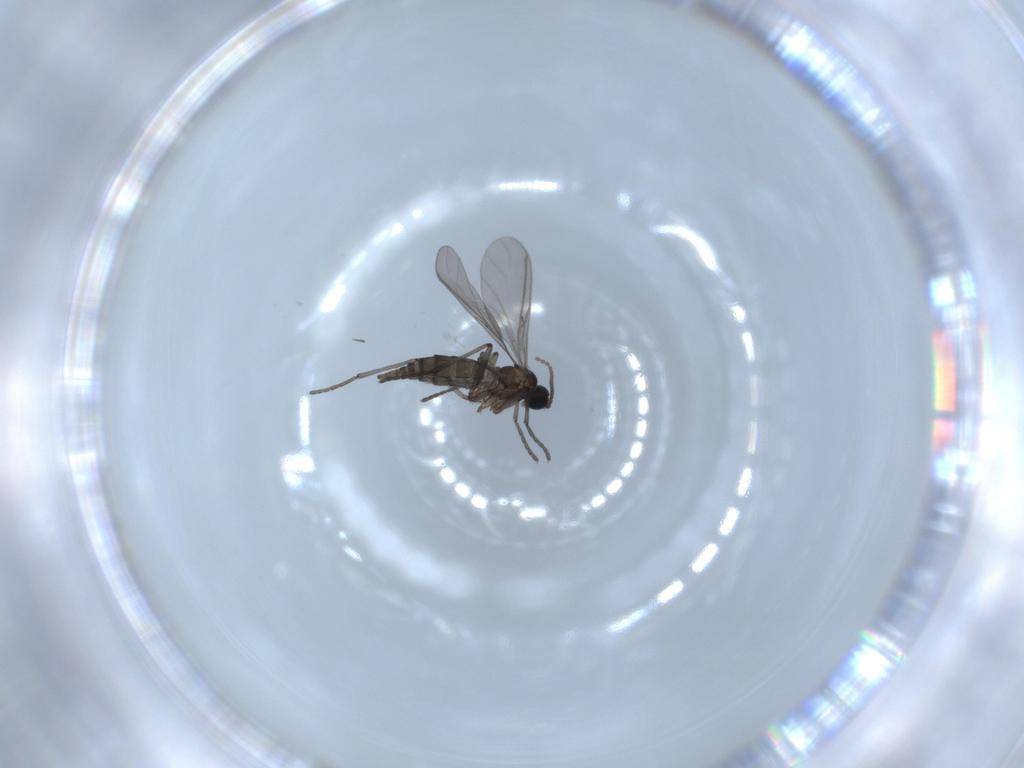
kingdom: Animalia
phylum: Arthropoda
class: Insecta
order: Diptera
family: Sciaridae
